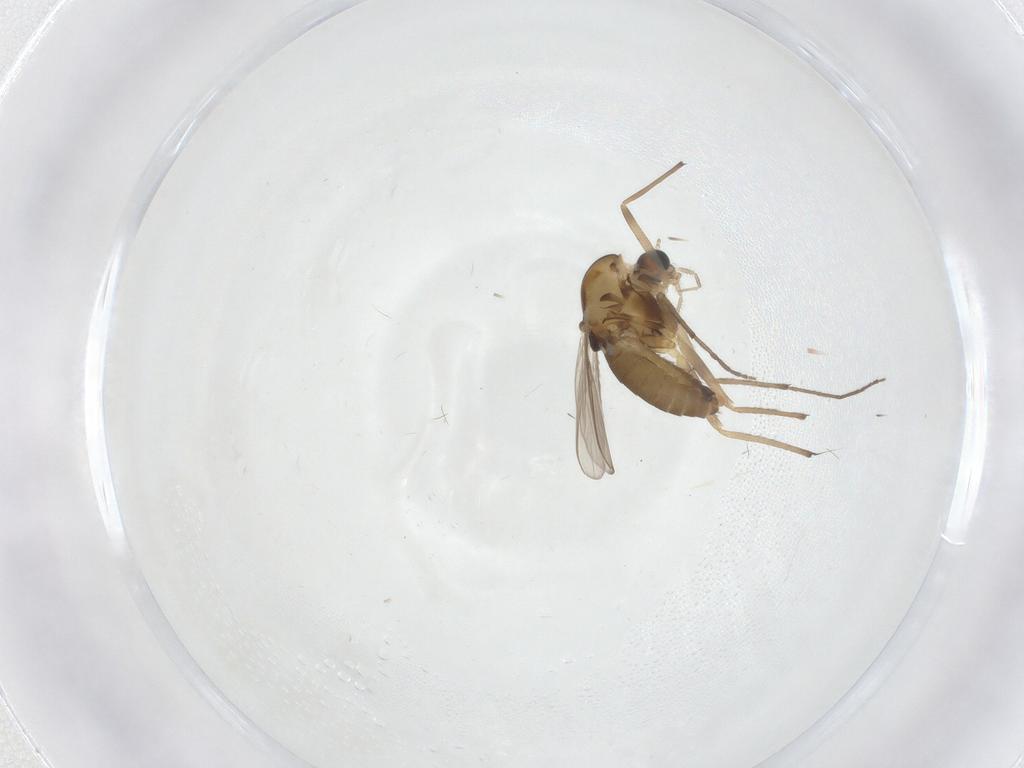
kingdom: Animalia
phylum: Arthropoda
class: Insecta
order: Diptera
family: Chironomidae
